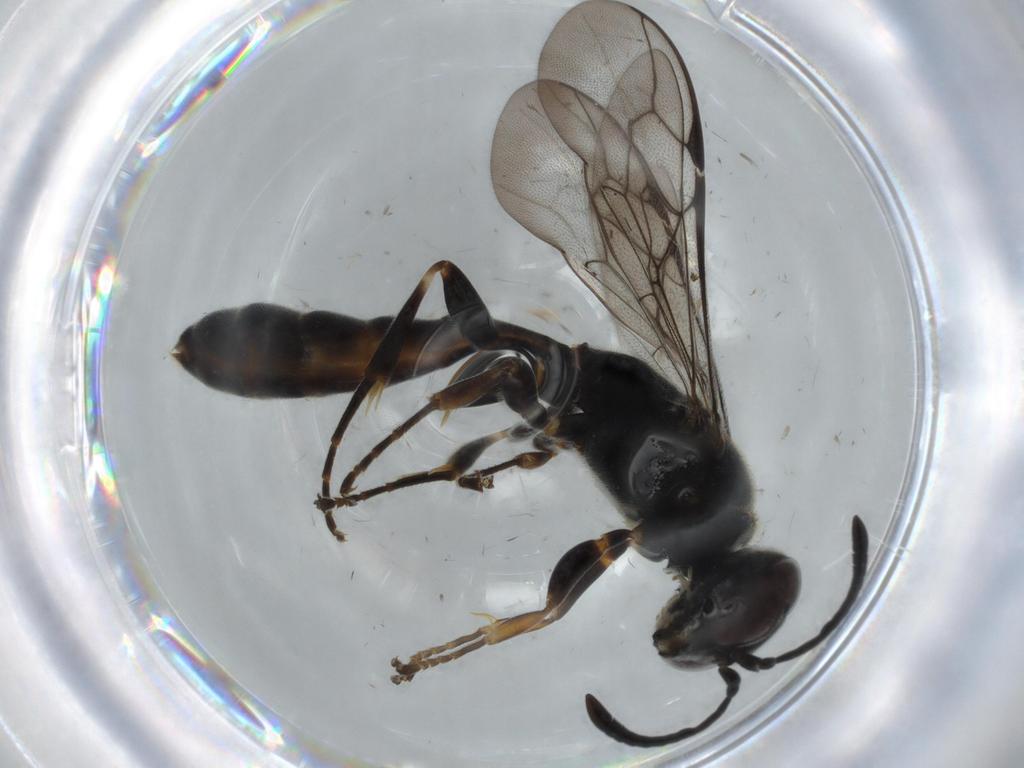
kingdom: Animalia
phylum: Arthropoda
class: Insecta
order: Hymenoptera
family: Crabronidae
